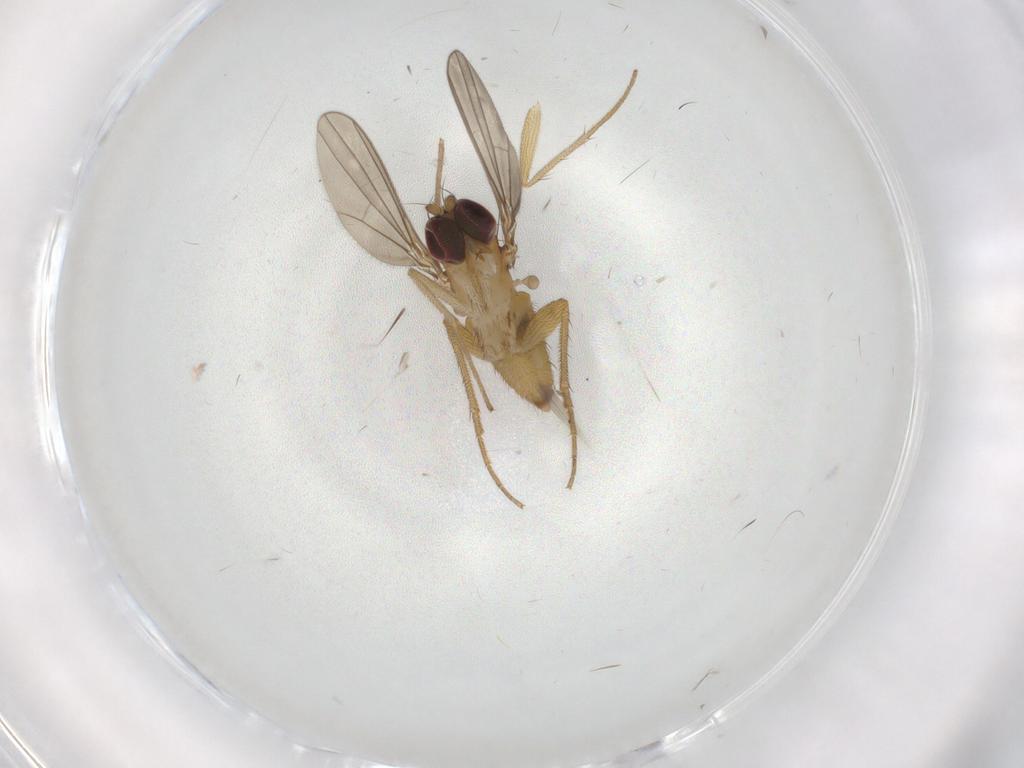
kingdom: Animalia
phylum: Arthropoda
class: Insecta
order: Diptera
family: Dolichopodidae
